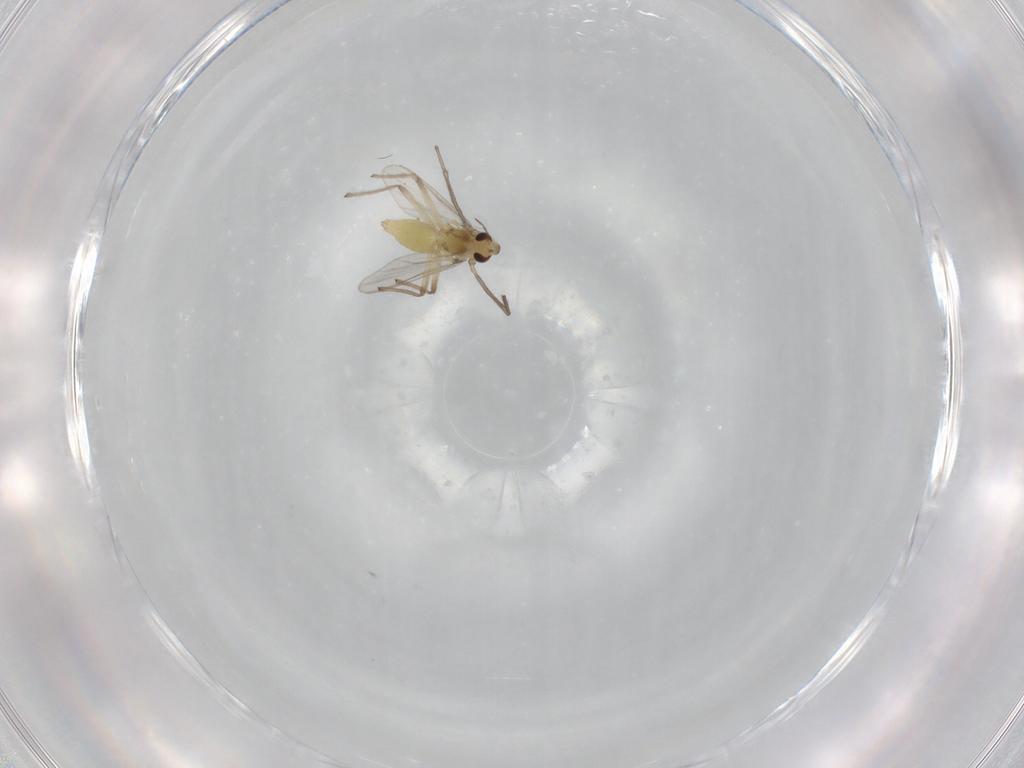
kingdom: Animalia
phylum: Arthropoda
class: Insecta
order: Diptera
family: Chironomidae
